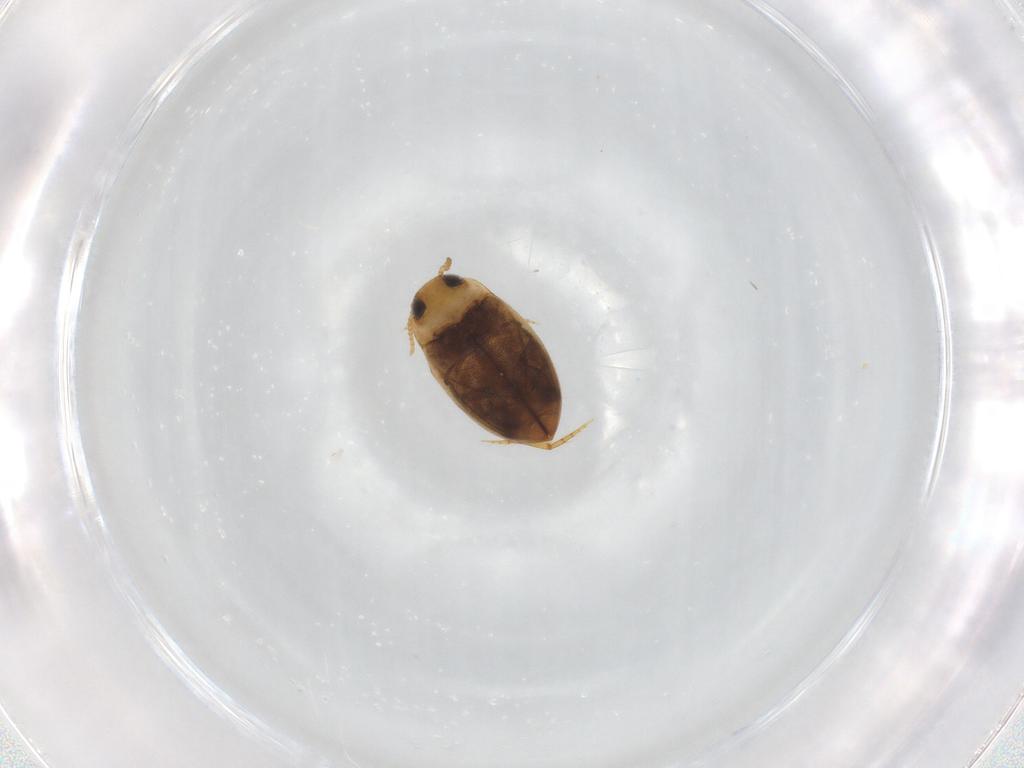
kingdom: Animalia
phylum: Arthropoda
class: Insecta
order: Coleoptera
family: Dytiscidae
